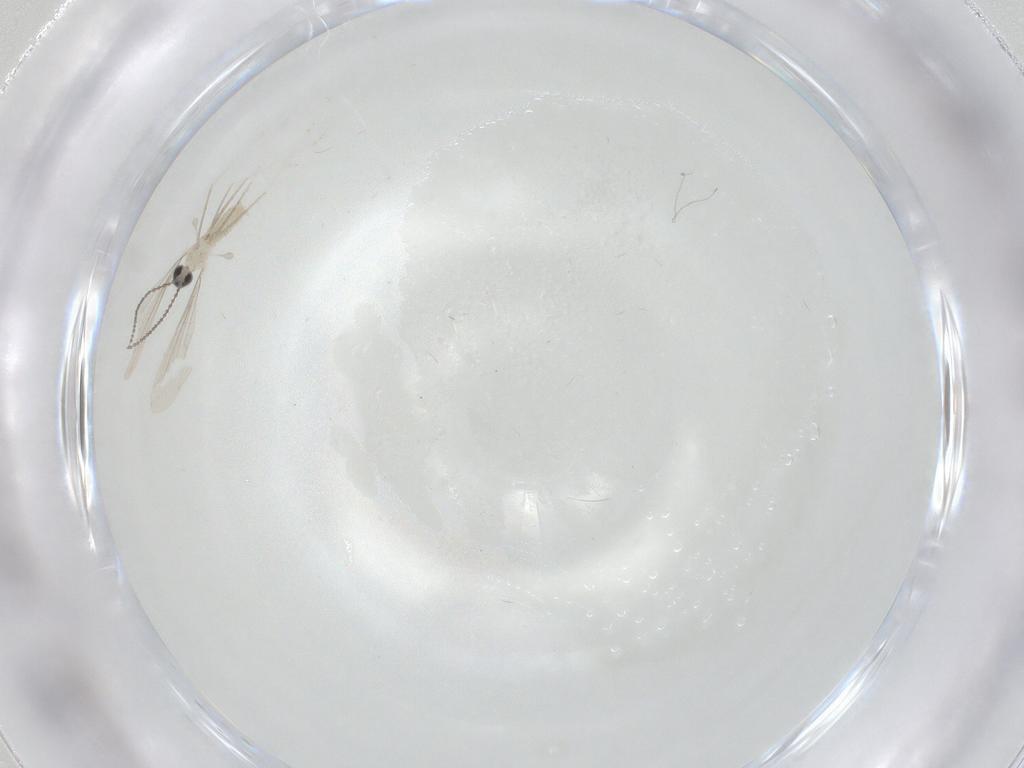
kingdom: Animalia
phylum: Arthropoda
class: Insecta
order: Diptera
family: Cecidomyiidae
